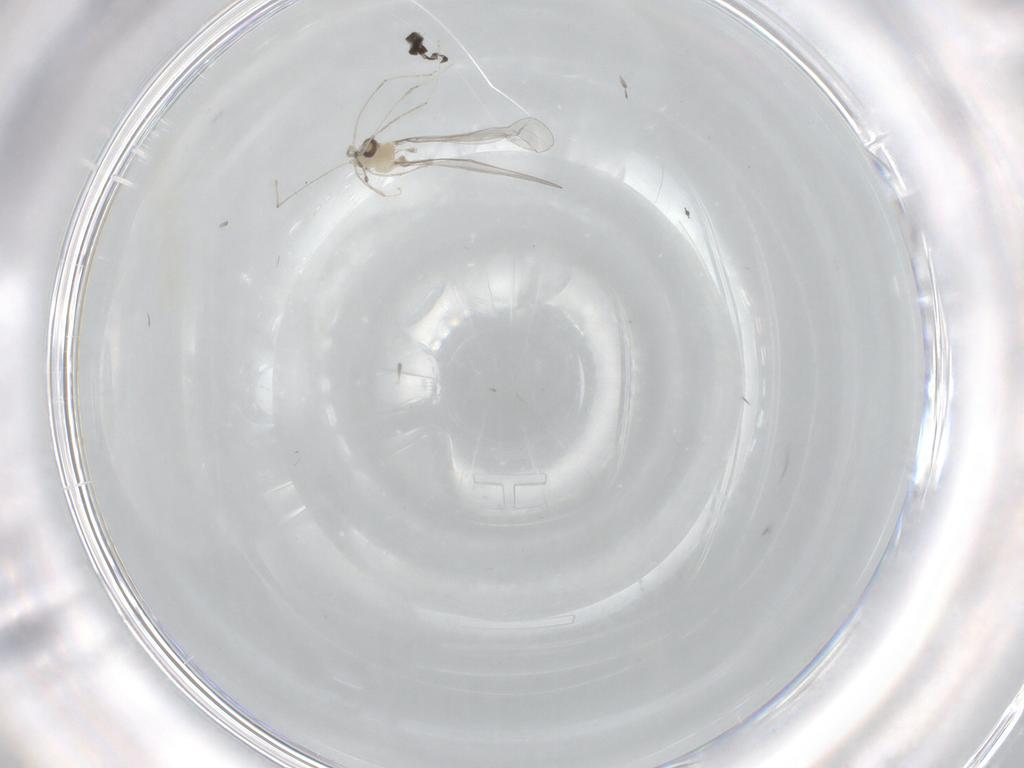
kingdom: Animalia
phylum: Arthropoda
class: Insecta
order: Diptera
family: Cecidomyiidae
